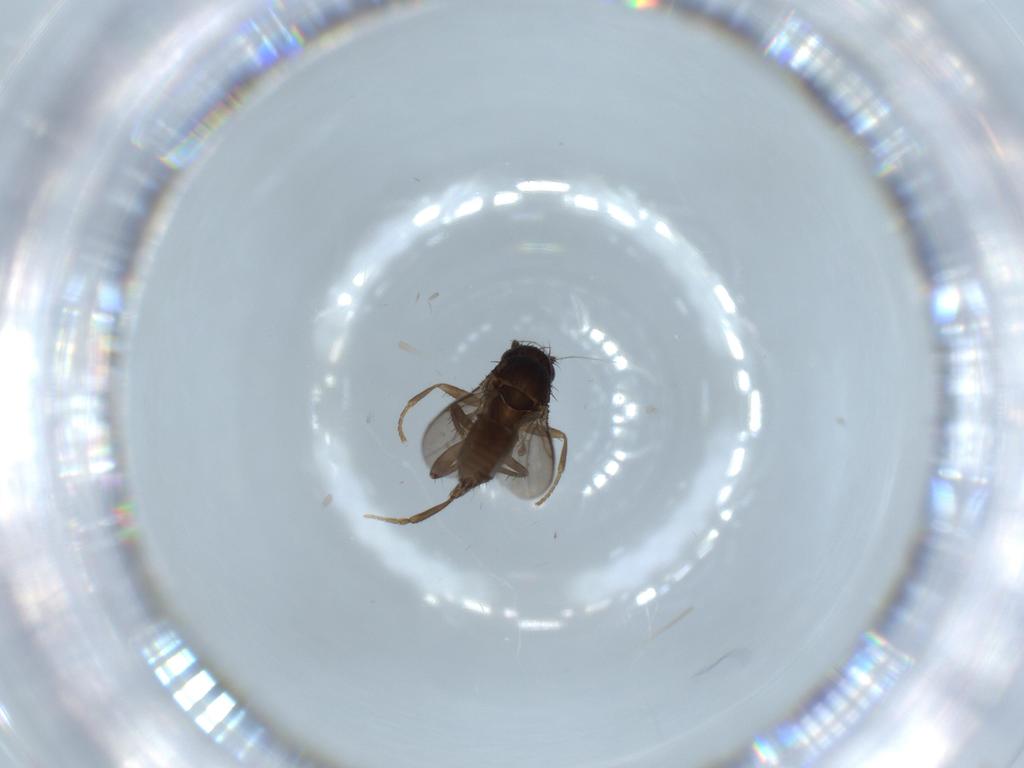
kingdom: Animalia
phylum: Arthropoda
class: Insecta
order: Diptera
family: Sphaeroceridae
